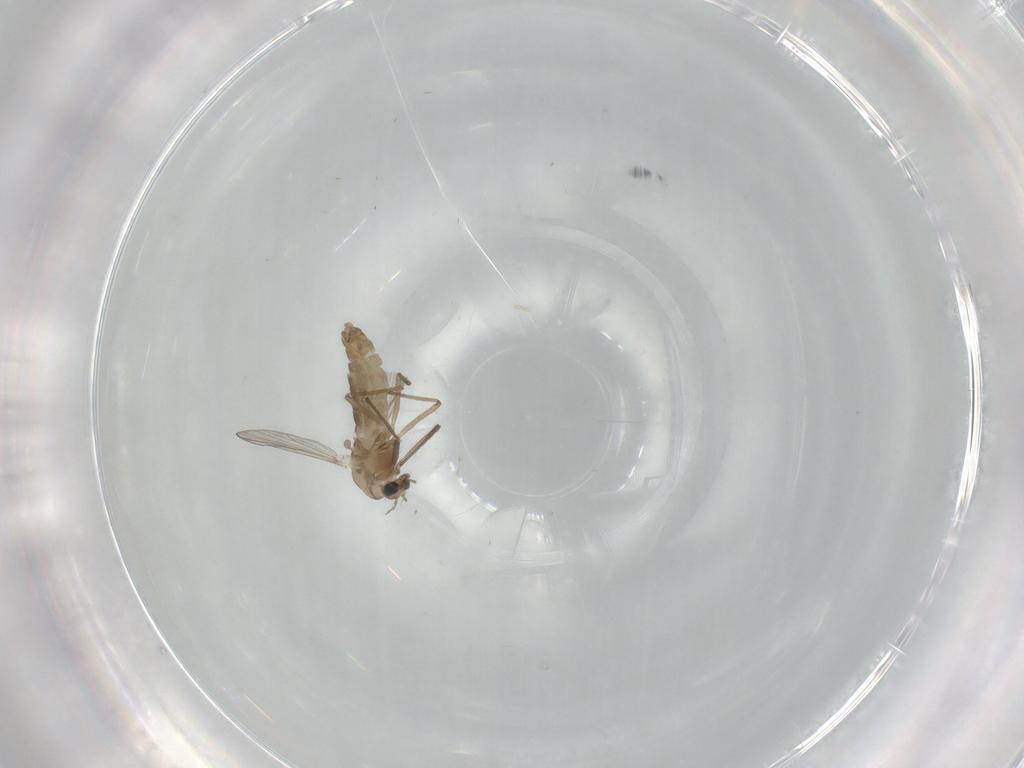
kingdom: Animalia
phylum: Arthropoda
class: Insecta
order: Diptera
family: Chironomidae
